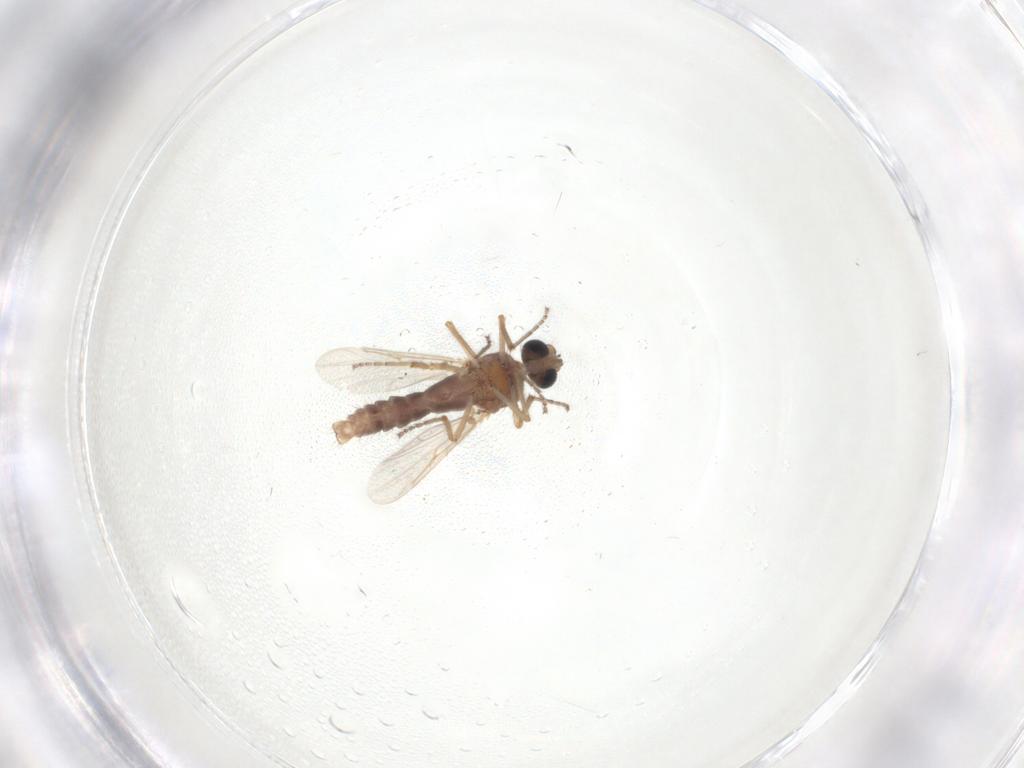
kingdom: Animalia
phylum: Arthropoda
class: Insecta
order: Diptera
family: Sciaridae
